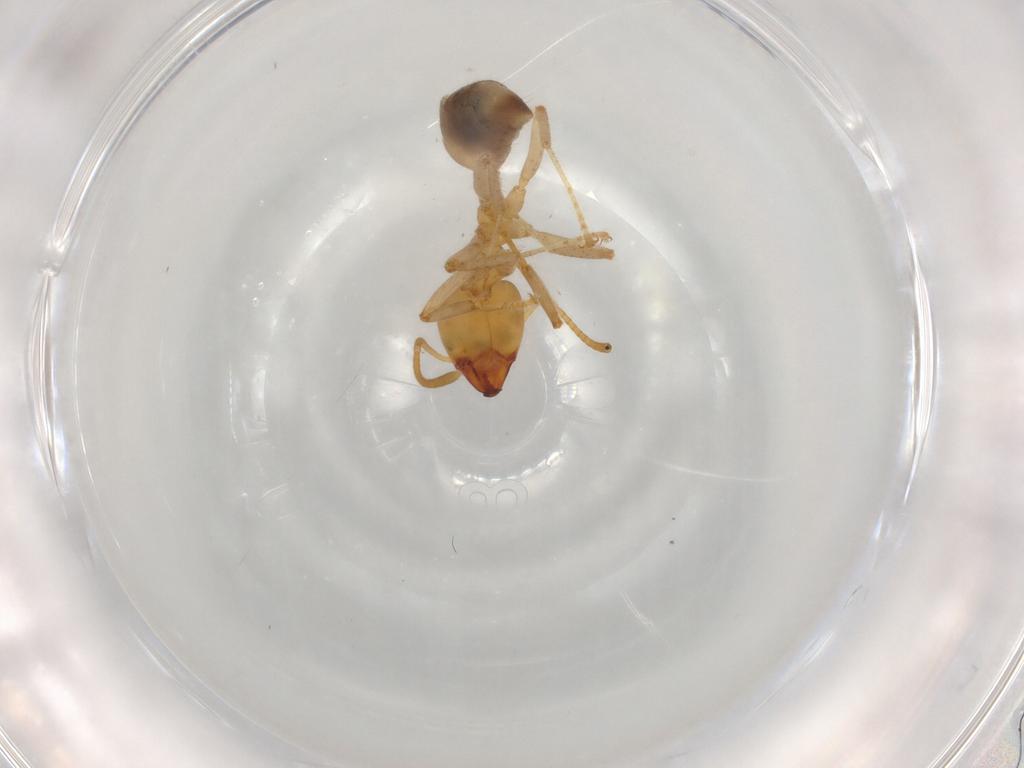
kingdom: Animalia
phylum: Arthropoda
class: Insecta
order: Hymenoptera
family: Formicidae
